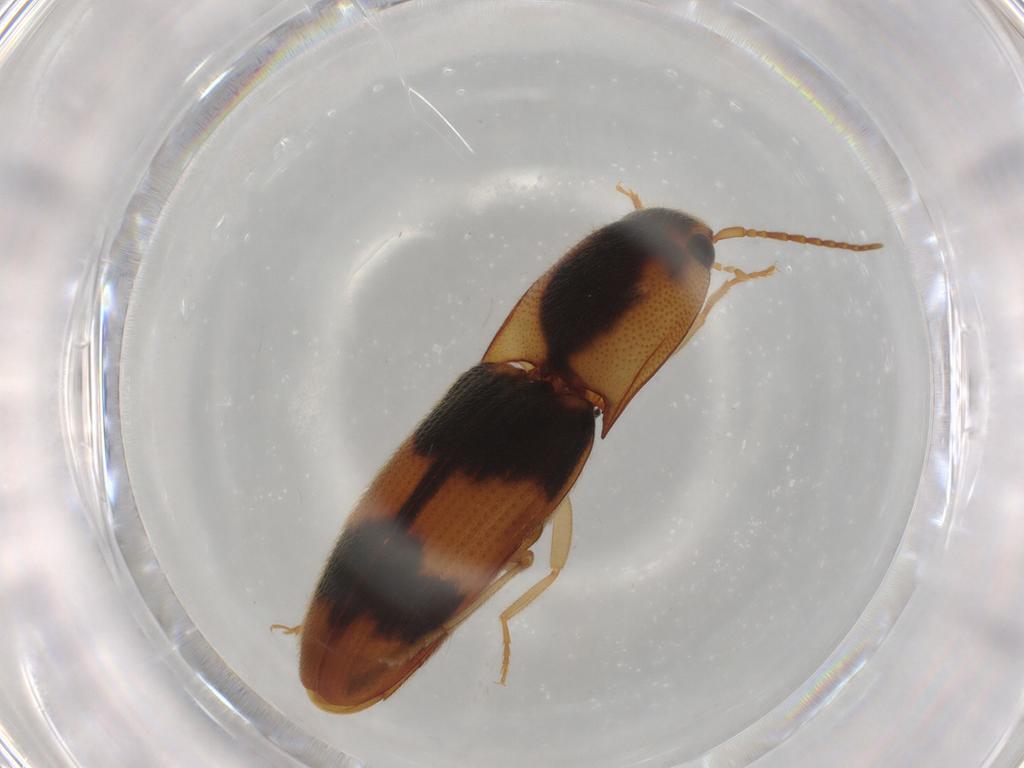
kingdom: Animalia
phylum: Arthropoda
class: Insecta
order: Coleoptera
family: Elateridae
